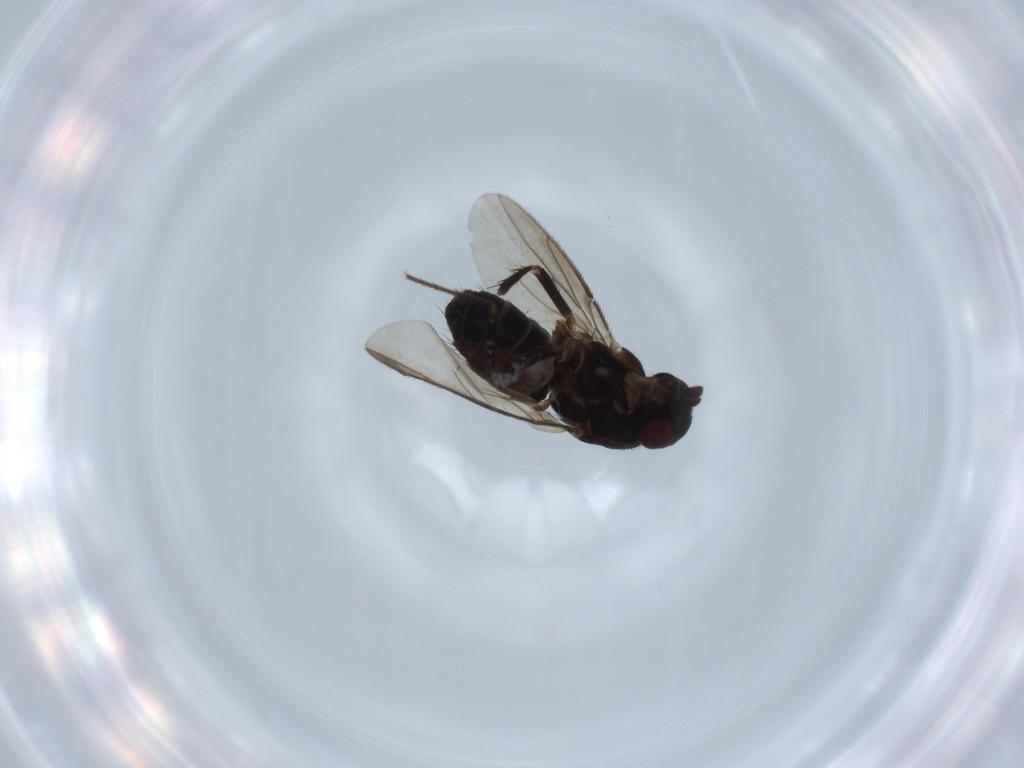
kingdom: Animalia
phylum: Arthropoda
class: Insecta
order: Diptera
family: Sphaeroceridae
